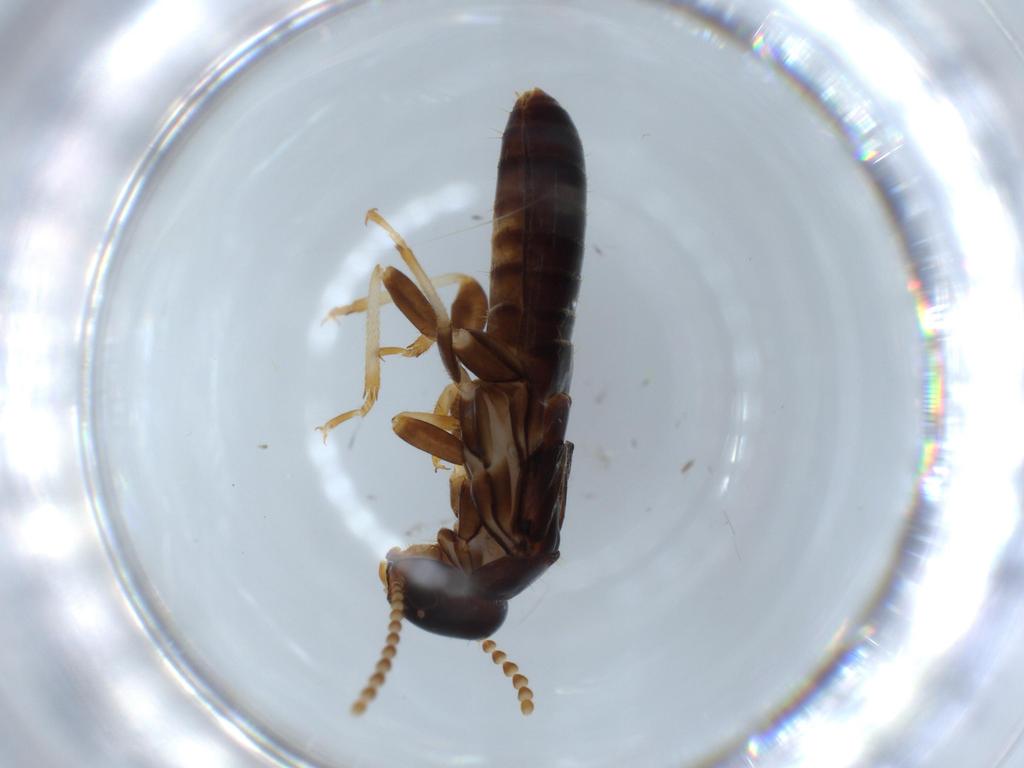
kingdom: Animalia
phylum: Arthropoda
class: Insecta
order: Blattodea
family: Kalotermitidae
